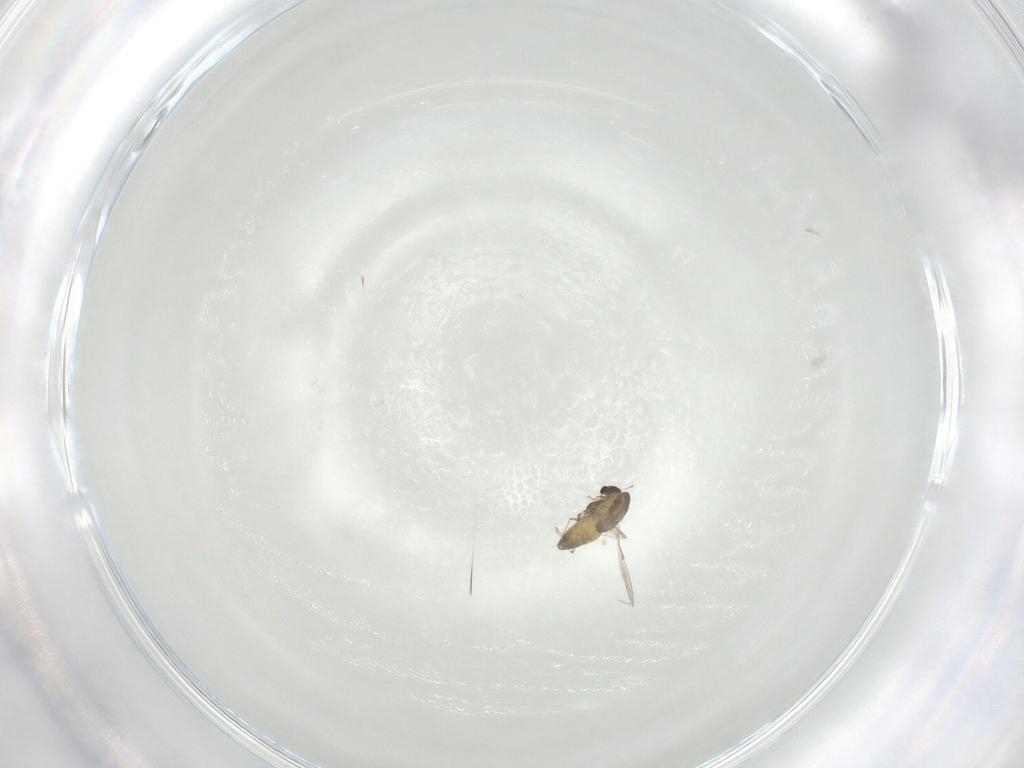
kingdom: Animalia
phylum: Arthropoda
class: Insecta
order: Diptera
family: Chironomidae
